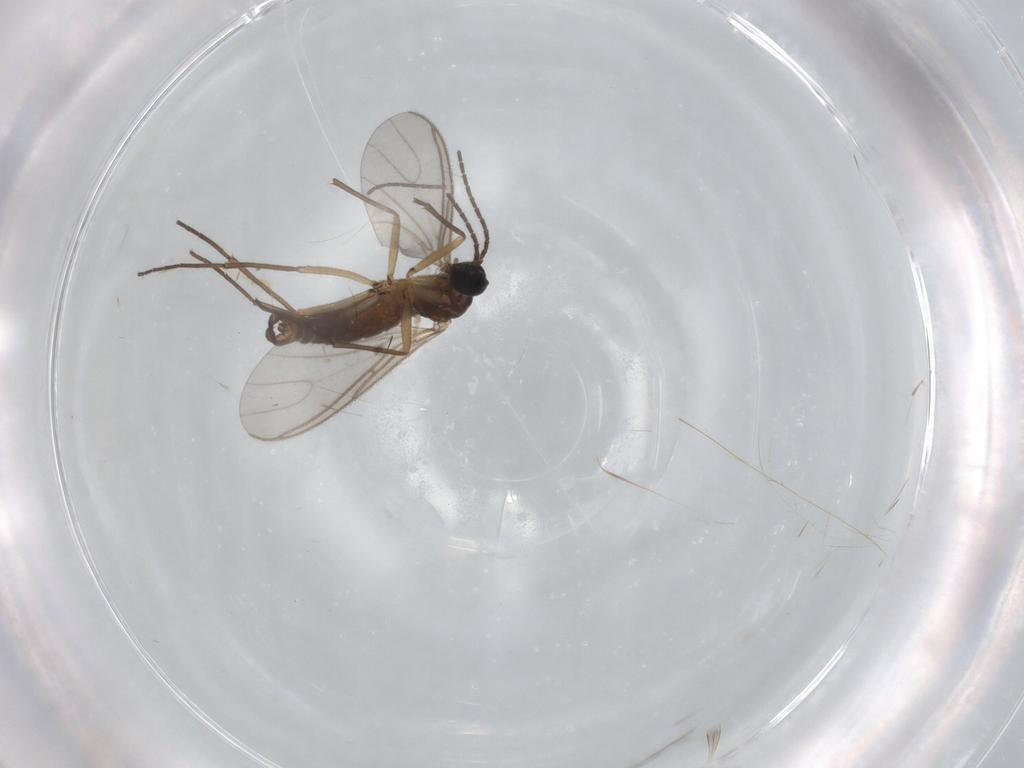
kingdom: Animalia
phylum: Arthropoda
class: Insecta
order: Diptera
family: Sciaridae
